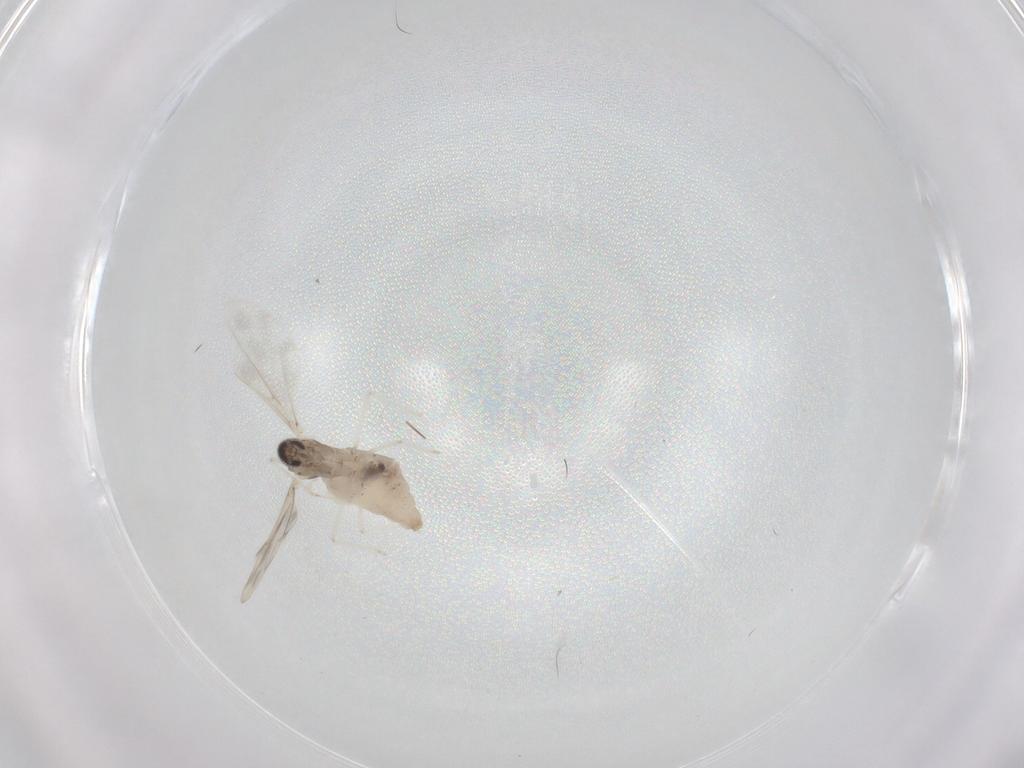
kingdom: Animalia
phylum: Arthropoda
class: Insecta
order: Diptera
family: Cecidomyiidae
